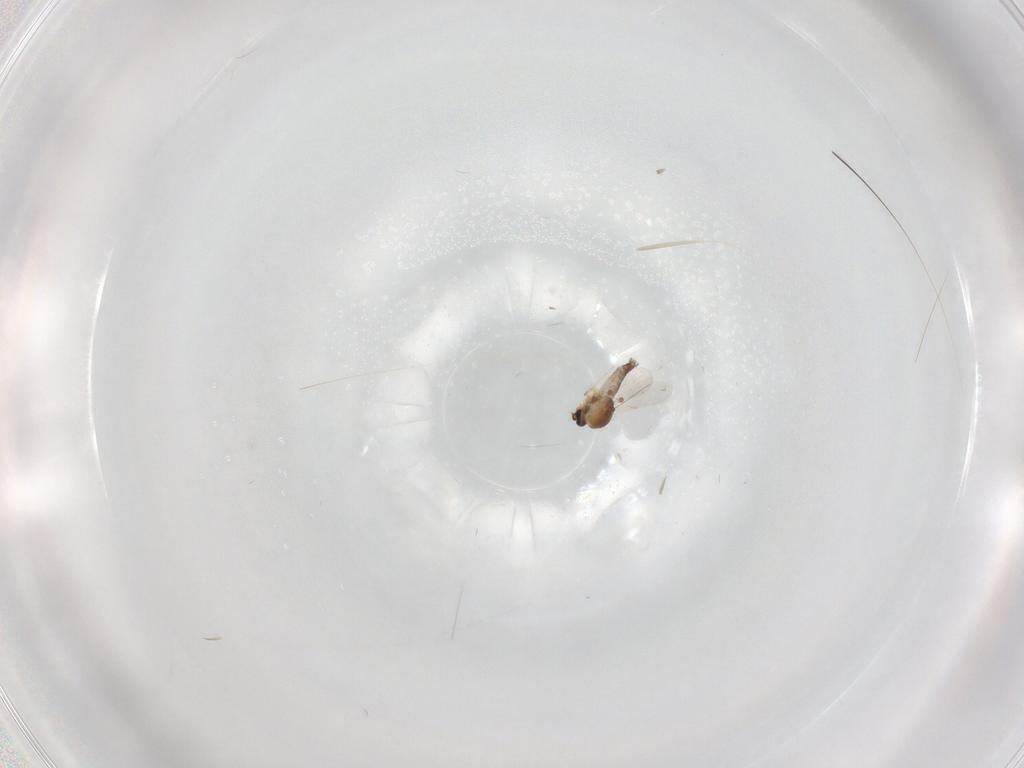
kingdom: Animalia
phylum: Arthropoda
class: Insecta
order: Diptera
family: Ceratopogonidae
